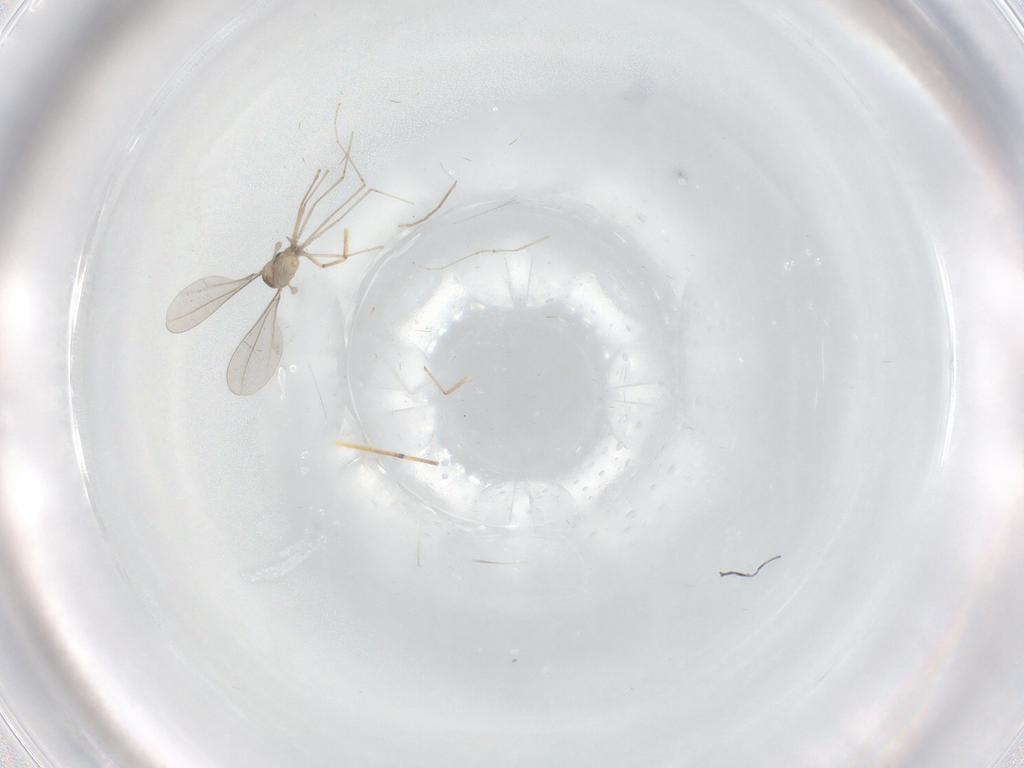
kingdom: Animalia
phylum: Arthropoda
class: Insecta
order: Diptera
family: Cecidomyiidae
